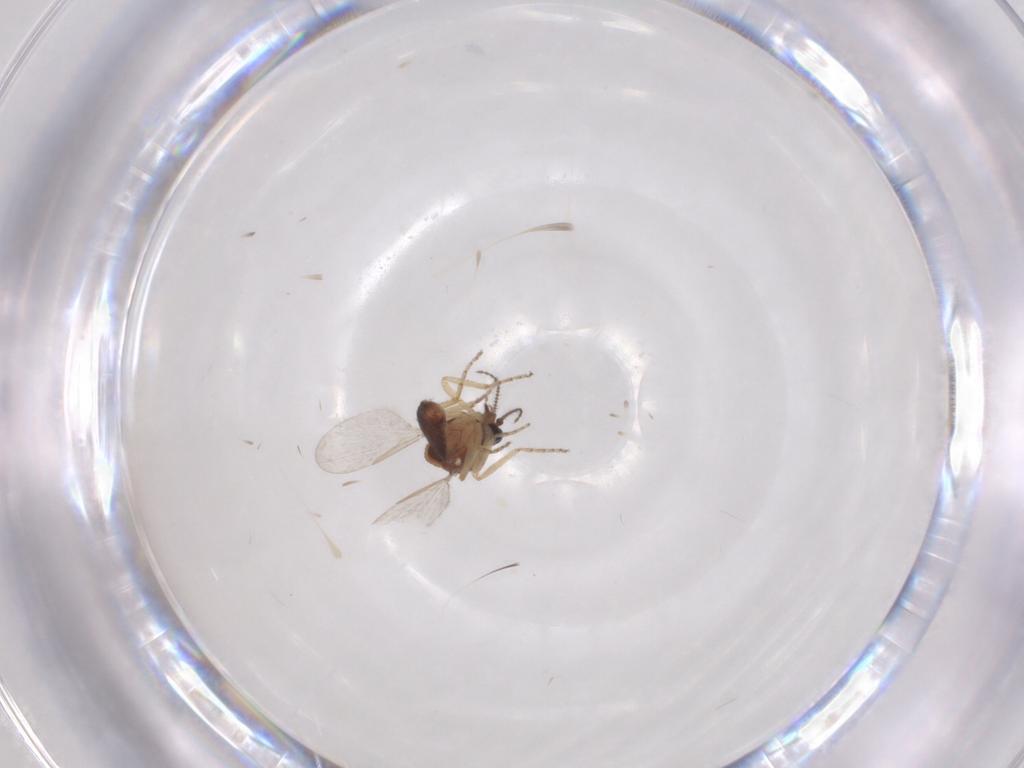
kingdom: Animalia
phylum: Arthropoda
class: Insecta
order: Diptera
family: Ceratopogonidae
